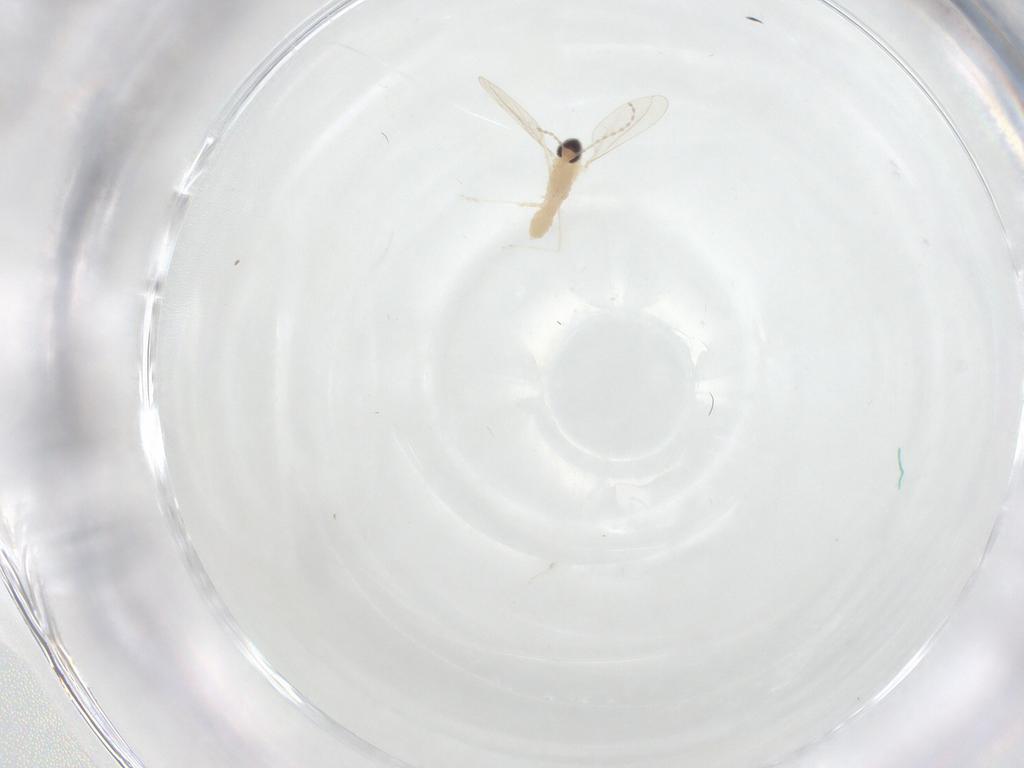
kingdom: Animalia
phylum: Arthropoda
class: Insecta
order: Diptera
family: Cecidomyiidae
